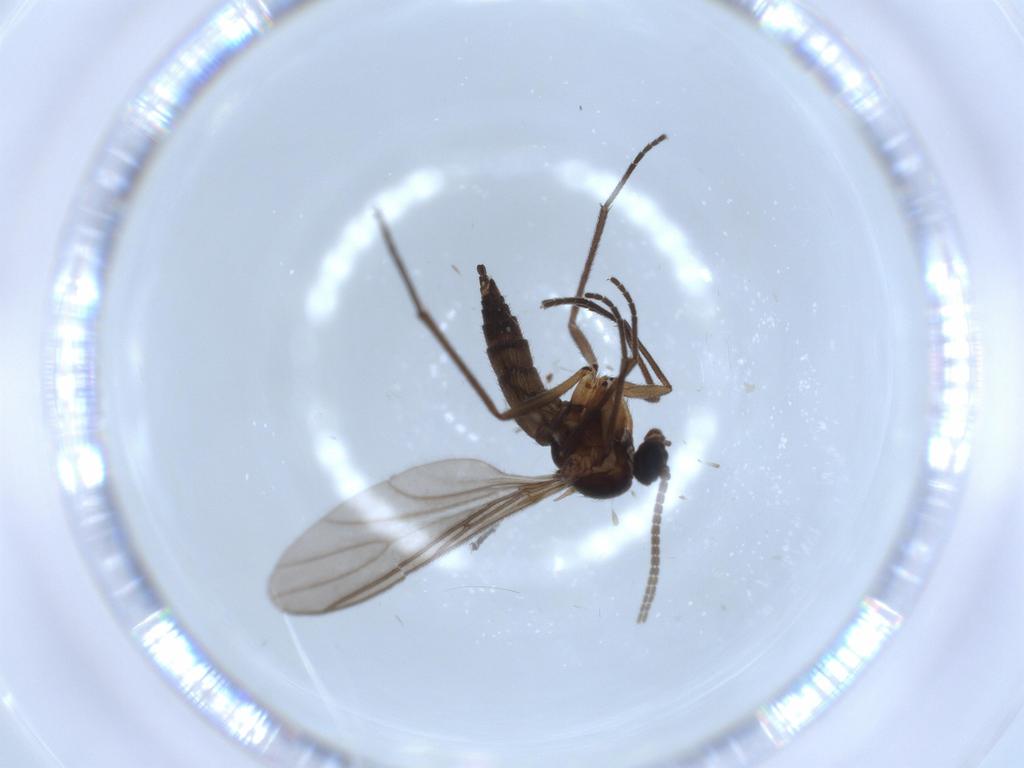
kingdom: Animalia
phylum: Arthropoda
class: Insecta
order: Diptera
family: Sciaridae
